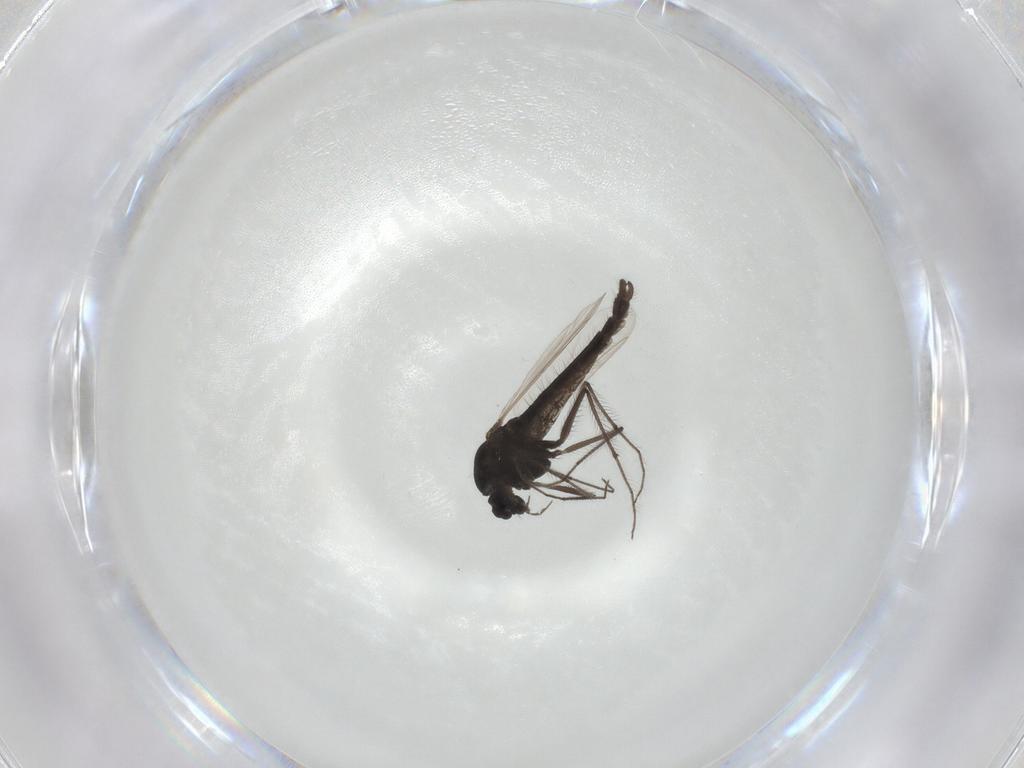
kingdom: Animalia
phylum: Arthropoda
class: Insecta
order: Diptera
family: Chironomidae
